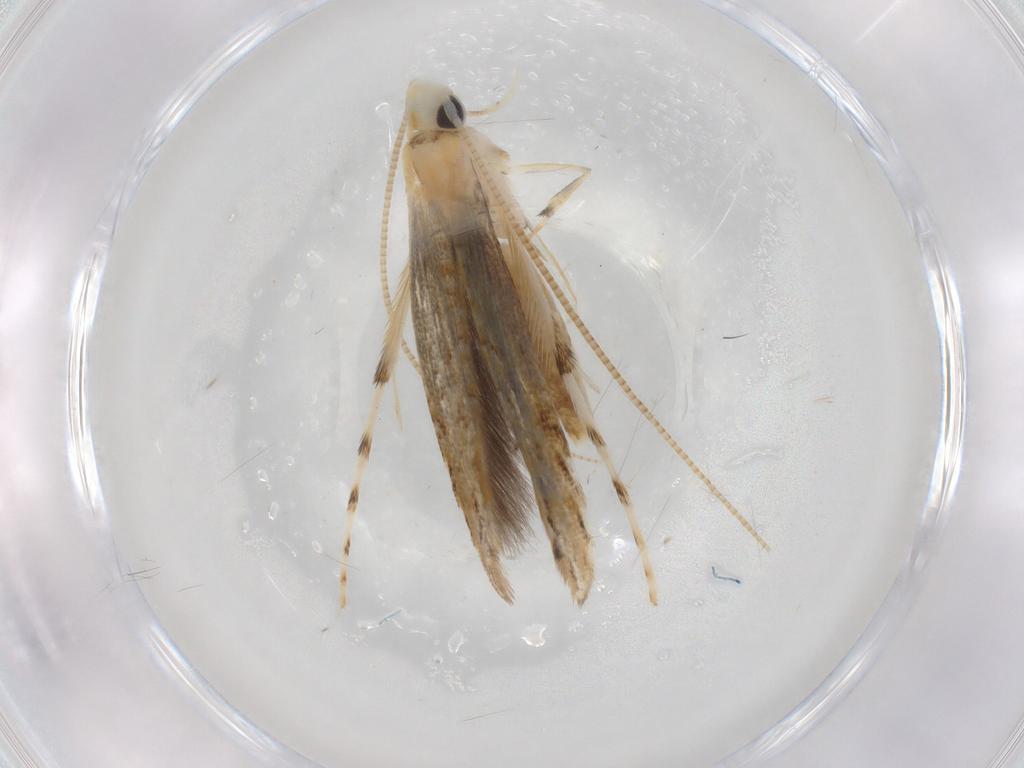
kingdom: Animalia
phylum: Arthropoda
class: Insecta
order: Lepidoptera
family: Gracillariidae
